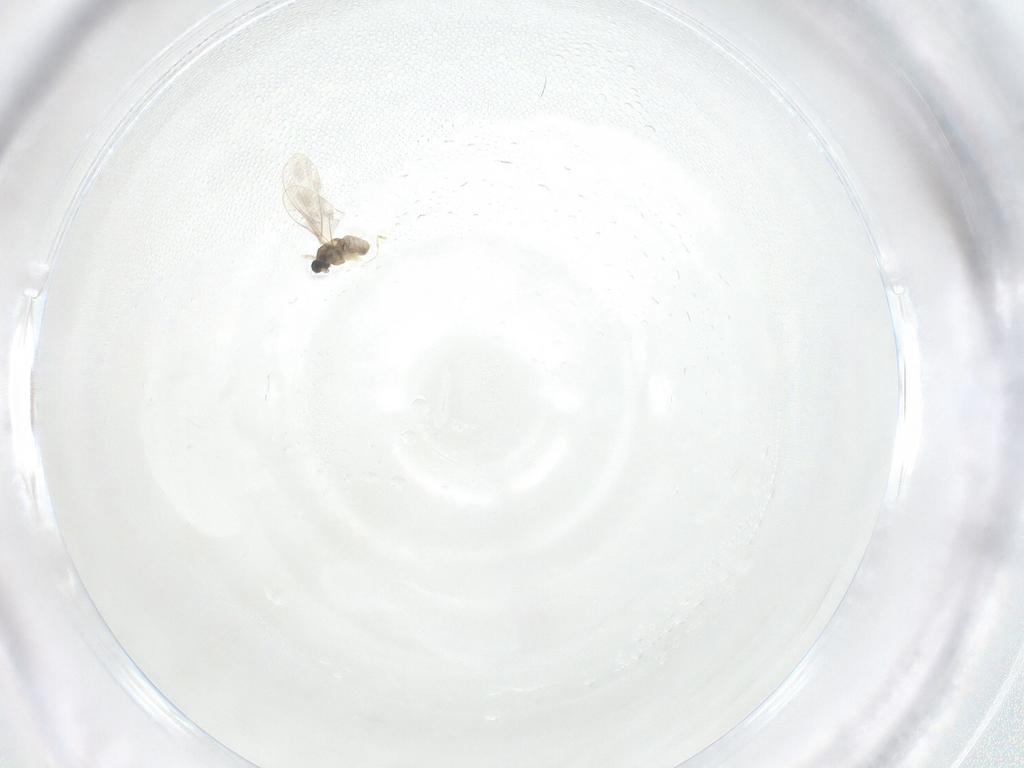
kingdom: Animalia
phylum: Arthropoda
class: Insecta
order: Diptera
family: Cecidomyiidae
